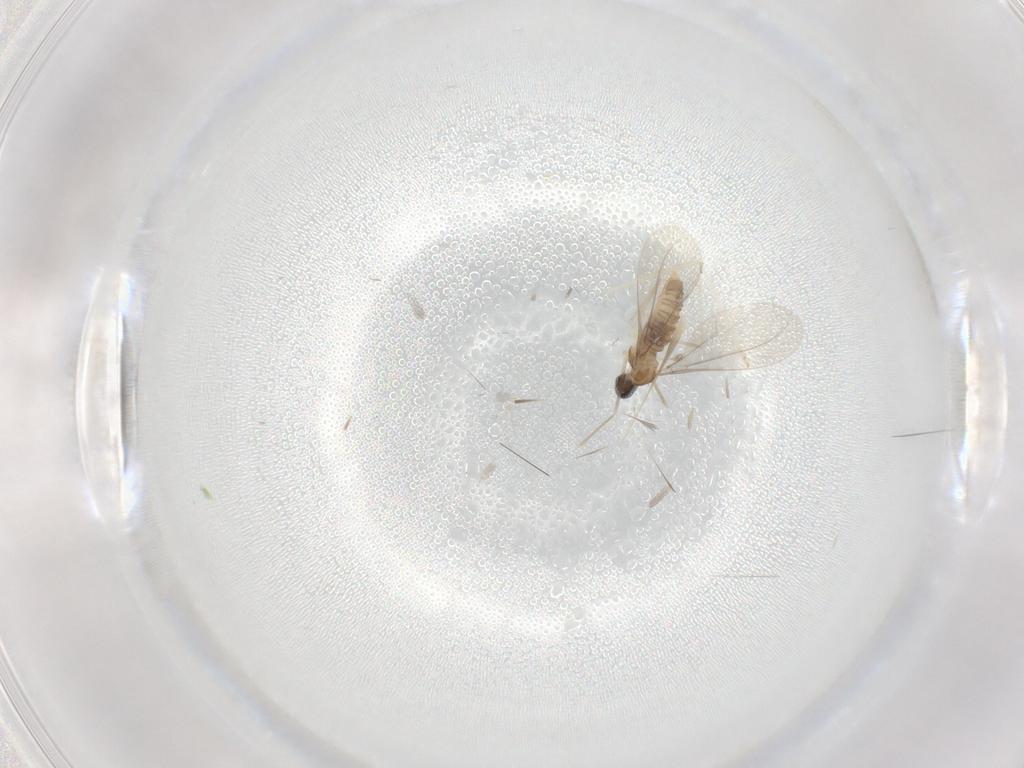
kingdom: Animalia
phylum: Arthropoda
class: Insecta
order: Diptera
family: Cecidomyiidae
